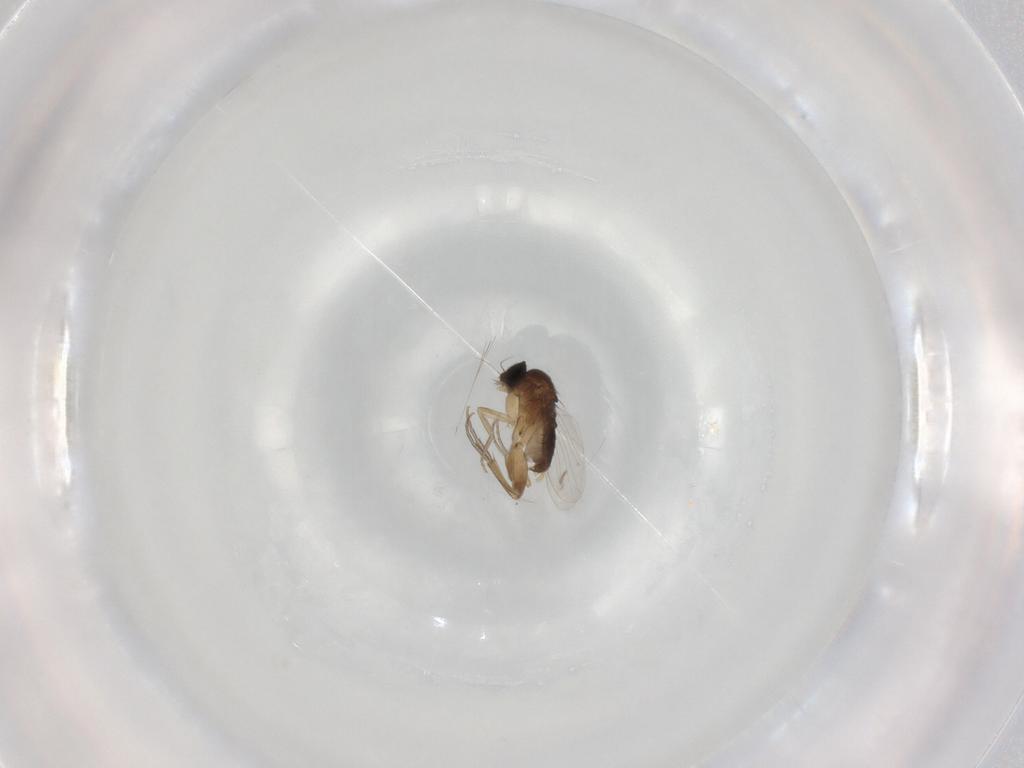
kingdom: Animalia
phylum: Arthropoda
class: Insecta
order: Diptera
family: Phoridae
